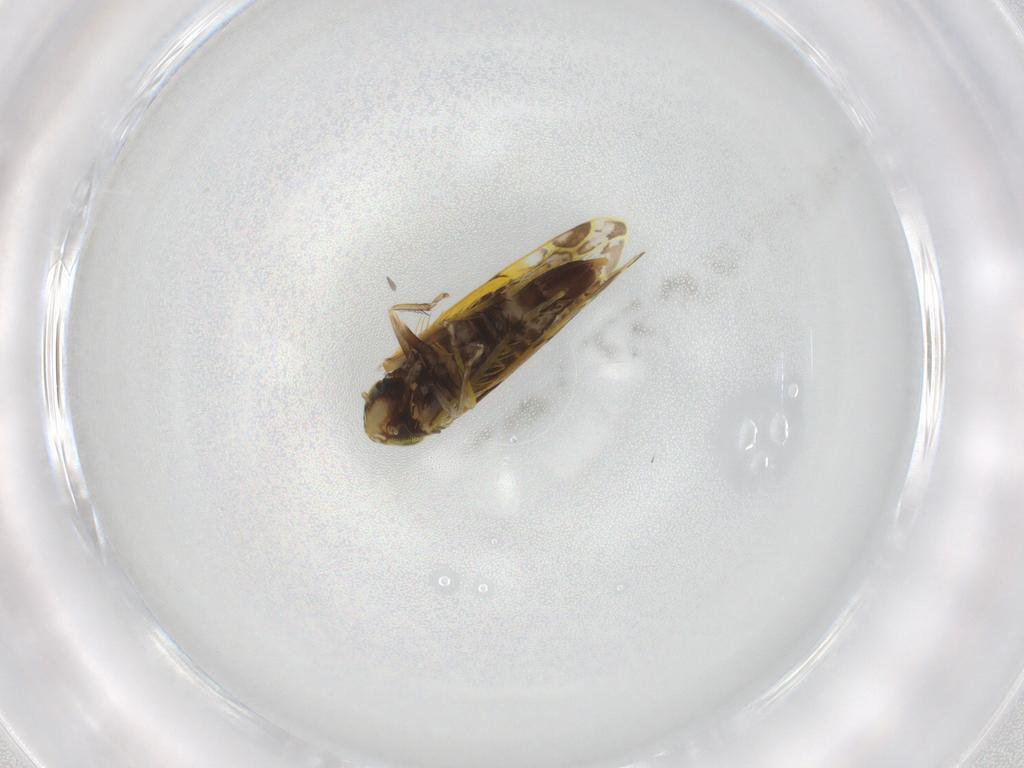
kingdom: Animalia
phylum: Arthropoda
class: Insecta
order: Hemiptera
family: Cicadellidae
